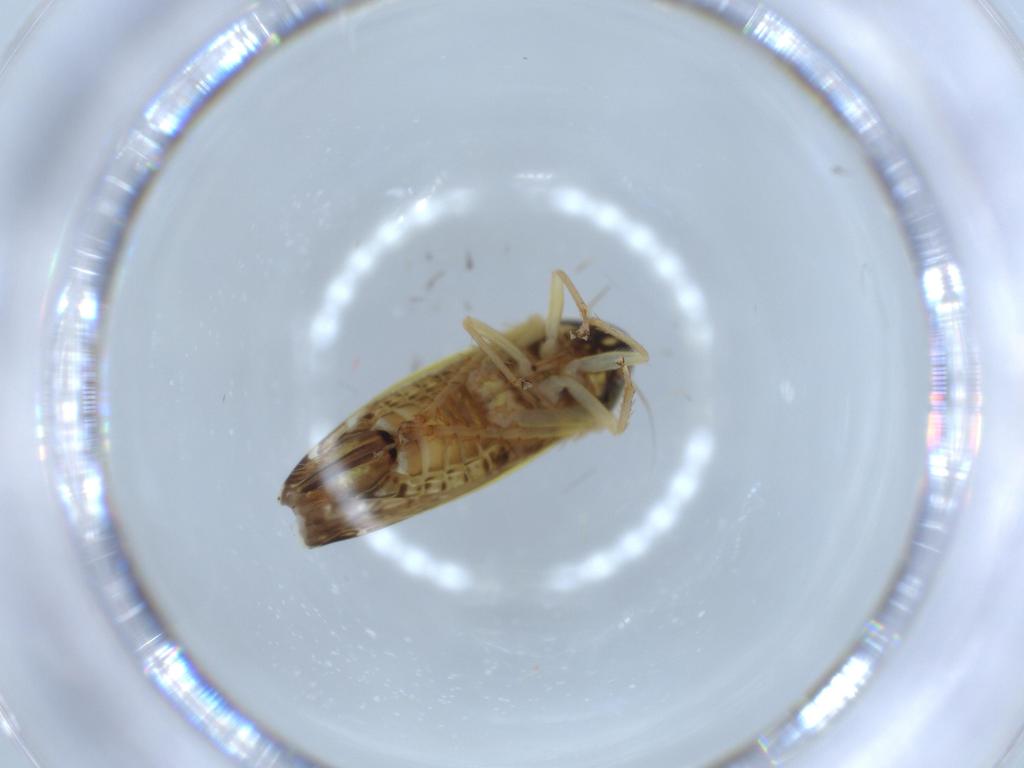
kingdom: Animalia
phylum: Arthropoda
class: Insecta
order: Hemiptera
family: Cicadellidae
